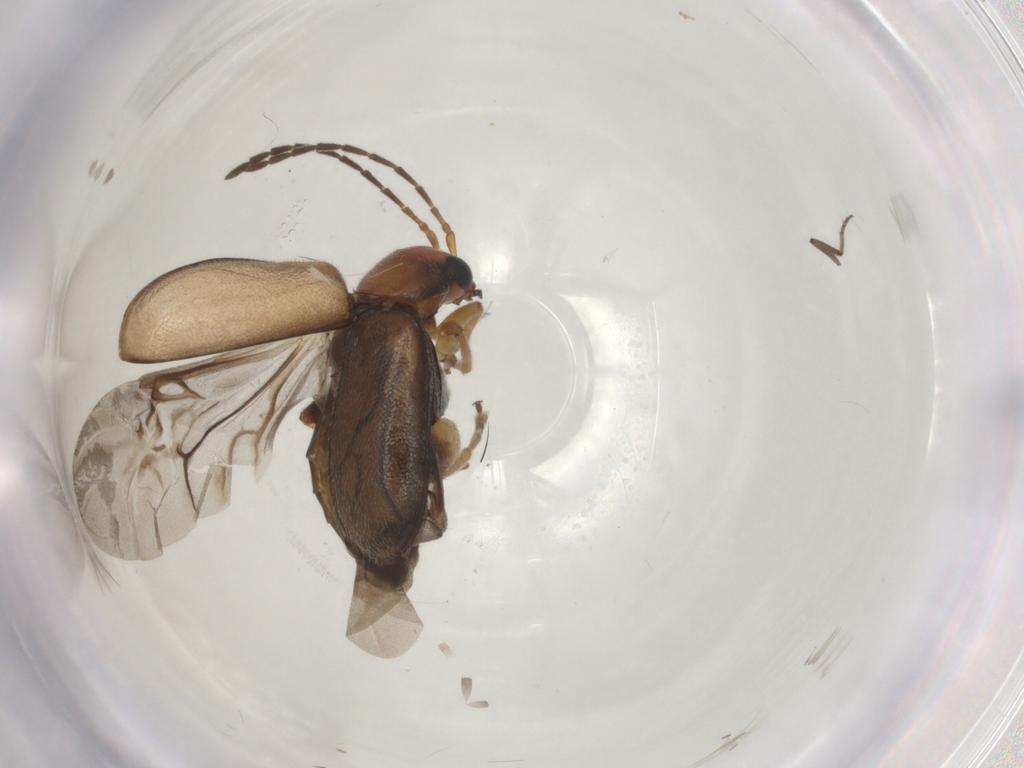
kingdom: Animalia
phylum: Arthropoda
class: Insecta
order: Coleoptera
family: Chrysomelidae
